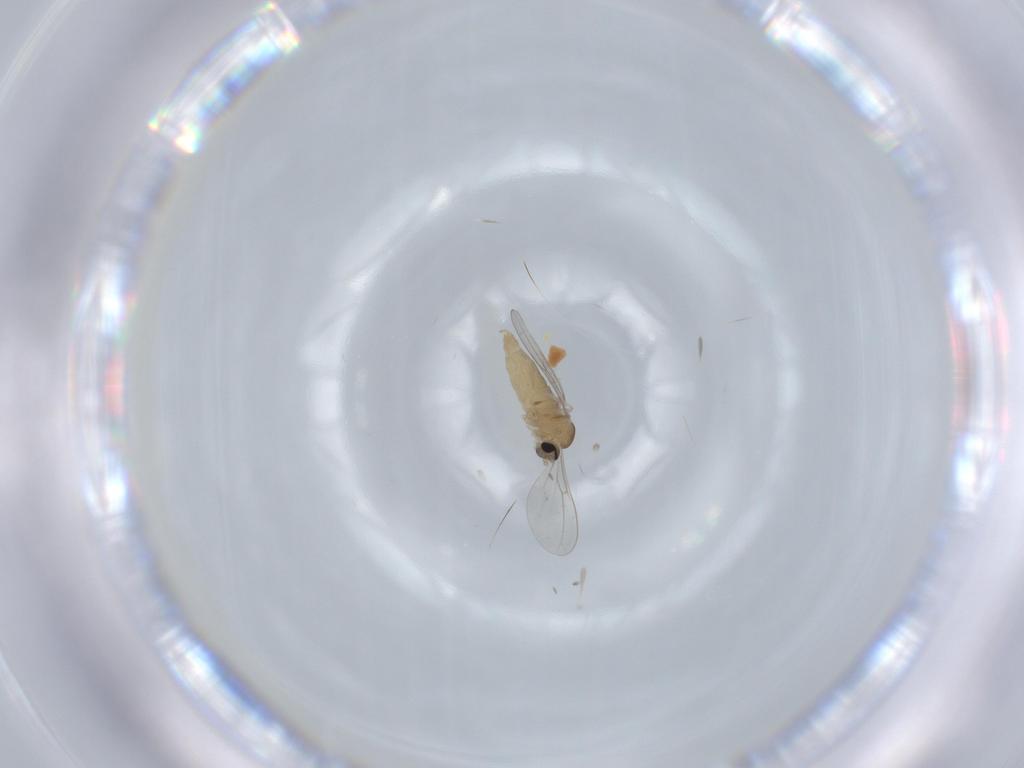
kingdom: Animalia
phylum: Arthropoda
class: Insecta
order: Diptera
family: Cecidomyiidae
